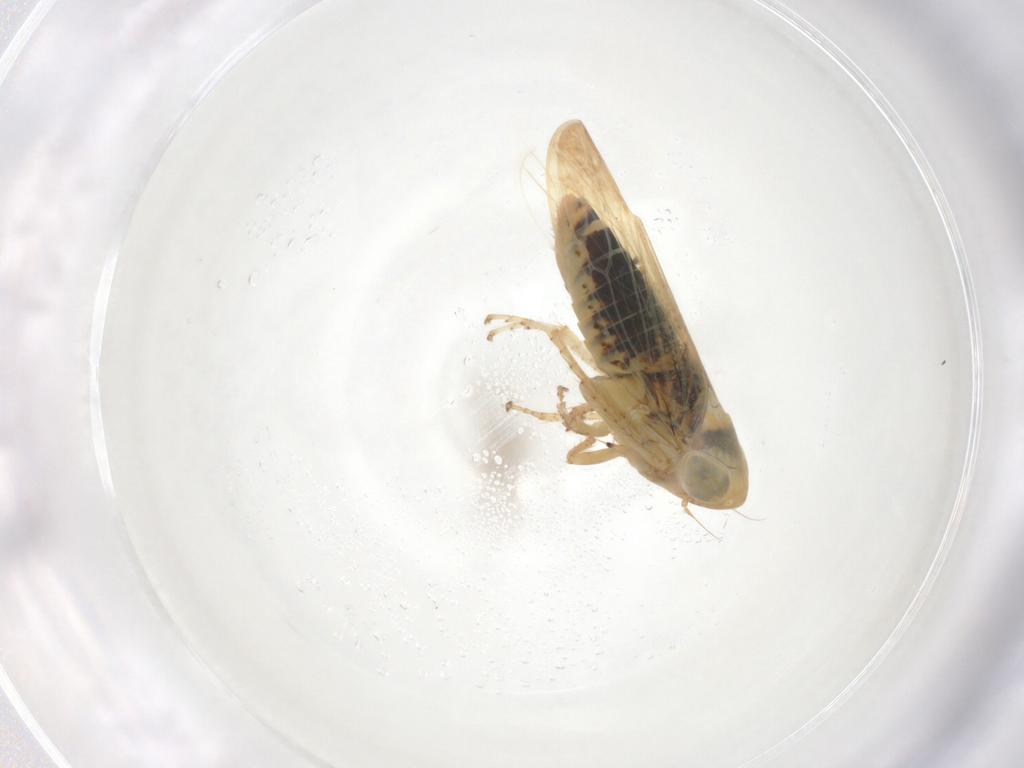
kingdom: Animalia
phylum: Arthropoda
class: Insecta
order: Hemiptera
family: Cicadellidae
